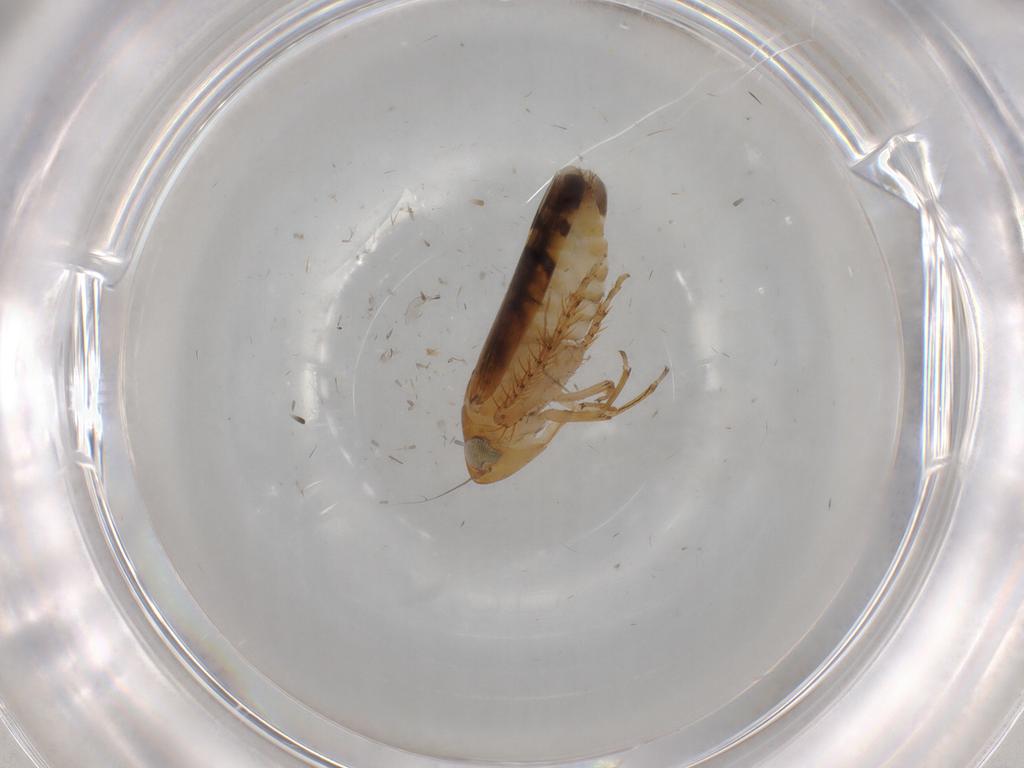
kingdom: Animalia
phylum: Arthropoda
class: Insecta
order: Hemiptera
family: Cicadellidae
